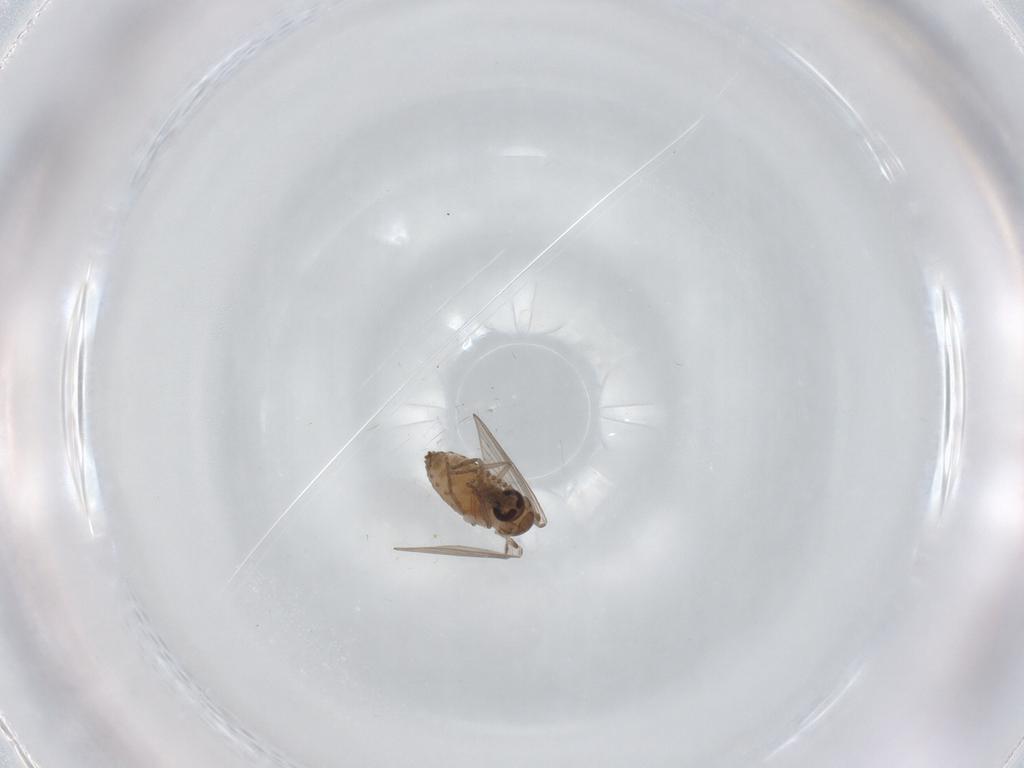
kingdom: Animalia
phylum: Arthropoda
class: Insecta
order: Diptera
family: Psychodidae
